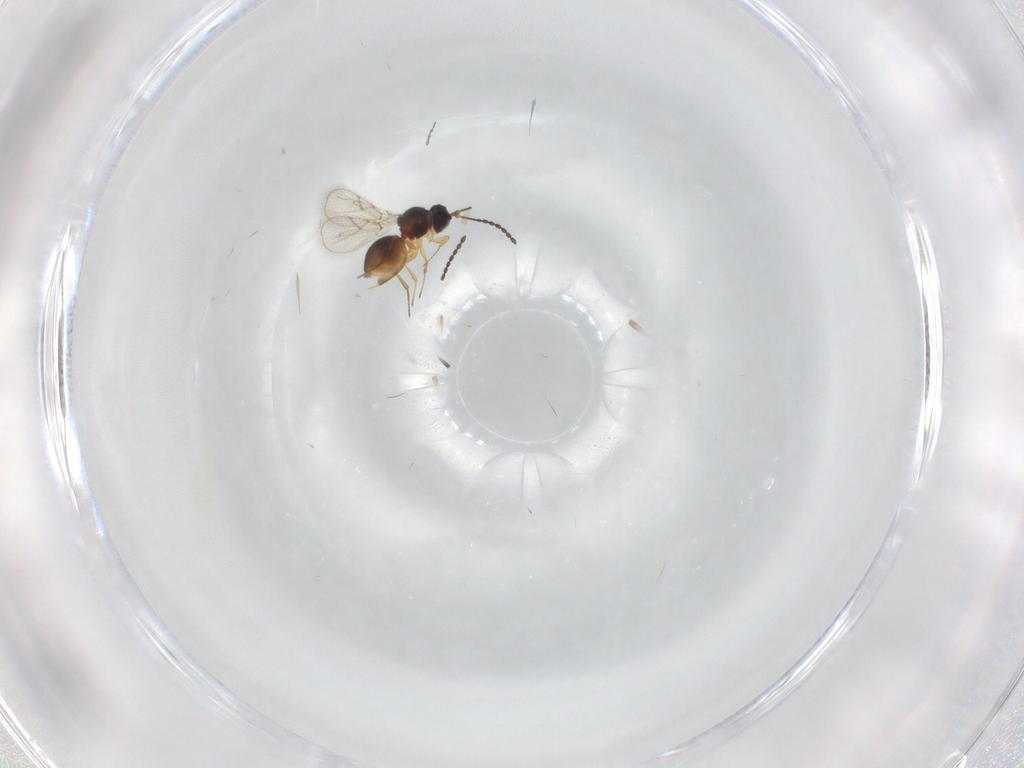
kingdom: Animalia
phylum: Arthropoda
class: Insecta
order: Hymenoptera
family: Figitidae
